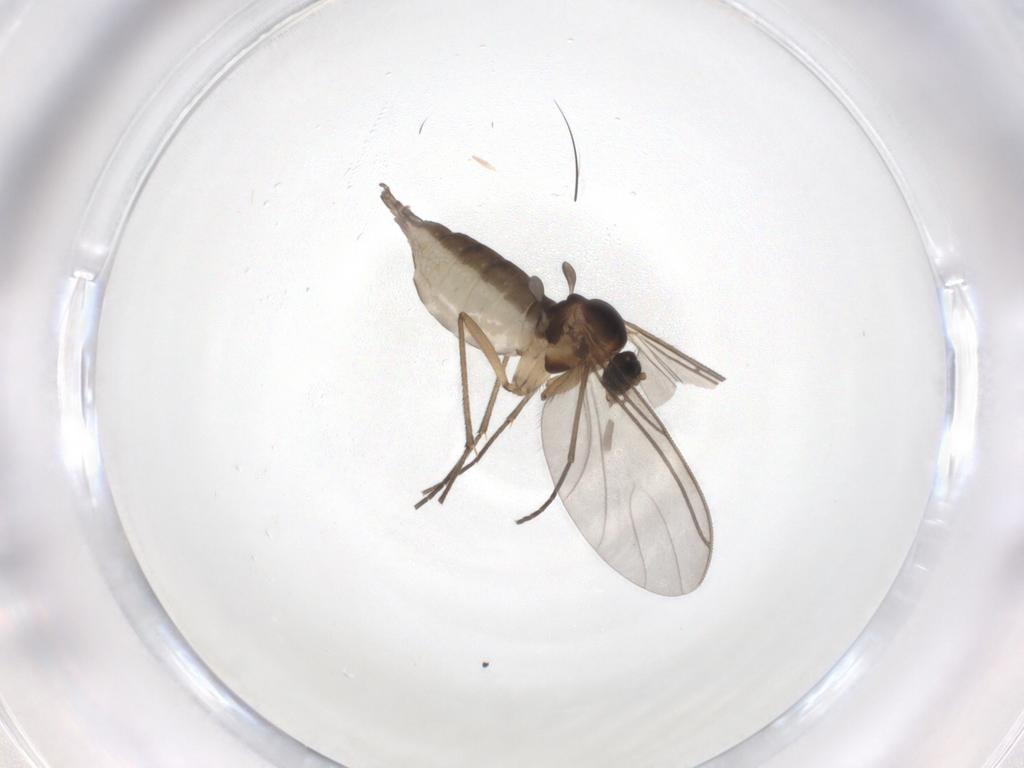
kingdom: Animalia
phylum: Arthropoda
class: Insecta
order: Diptera
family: Sciaridae
